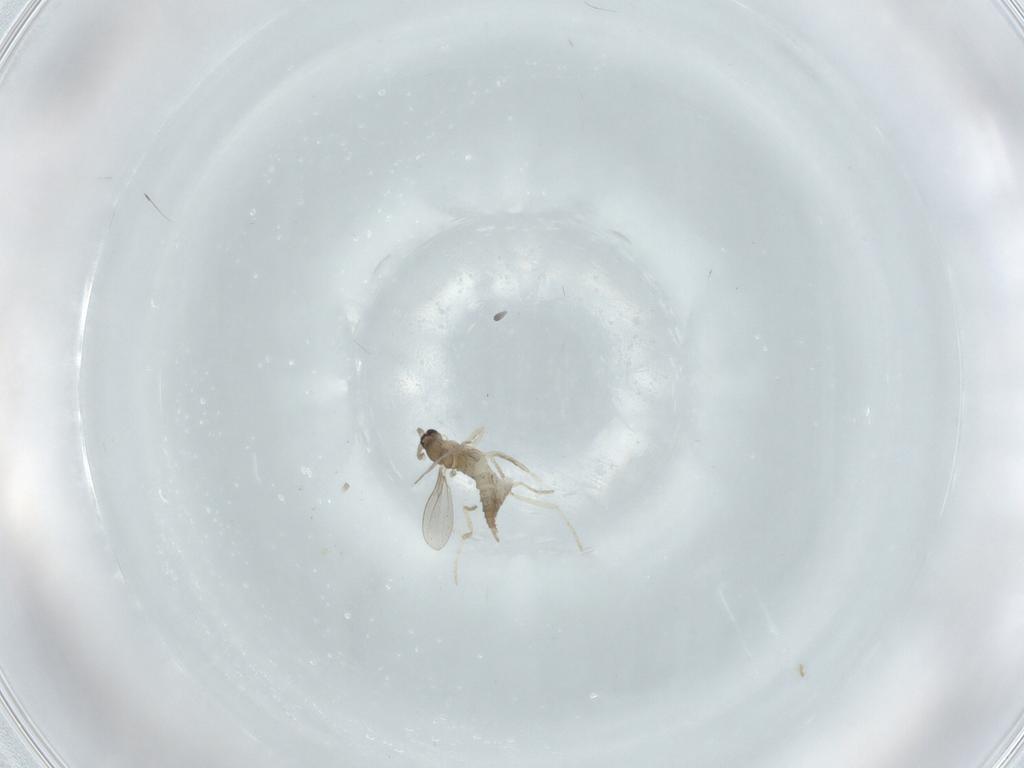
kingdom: Animalia
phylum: Arthropoda
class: Insecta
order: Diptera
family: Cecidomyiidae
